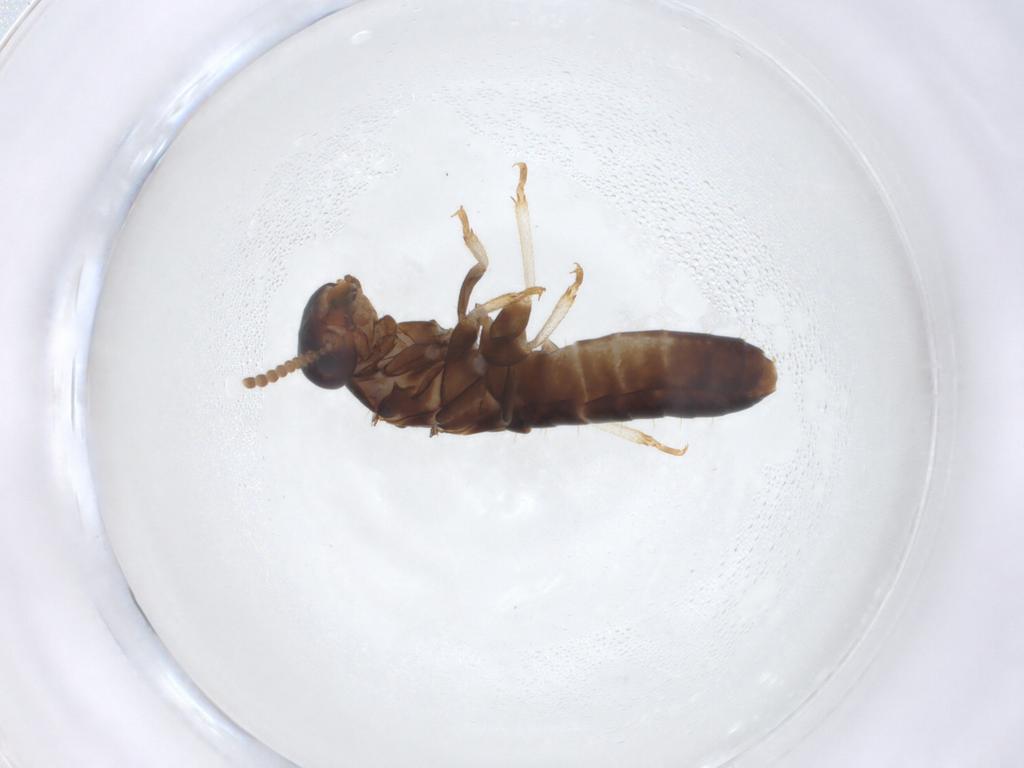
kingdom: Animalia
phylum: Arthropoda
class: Insecta
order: Blattodea
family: Kalotermitidae
